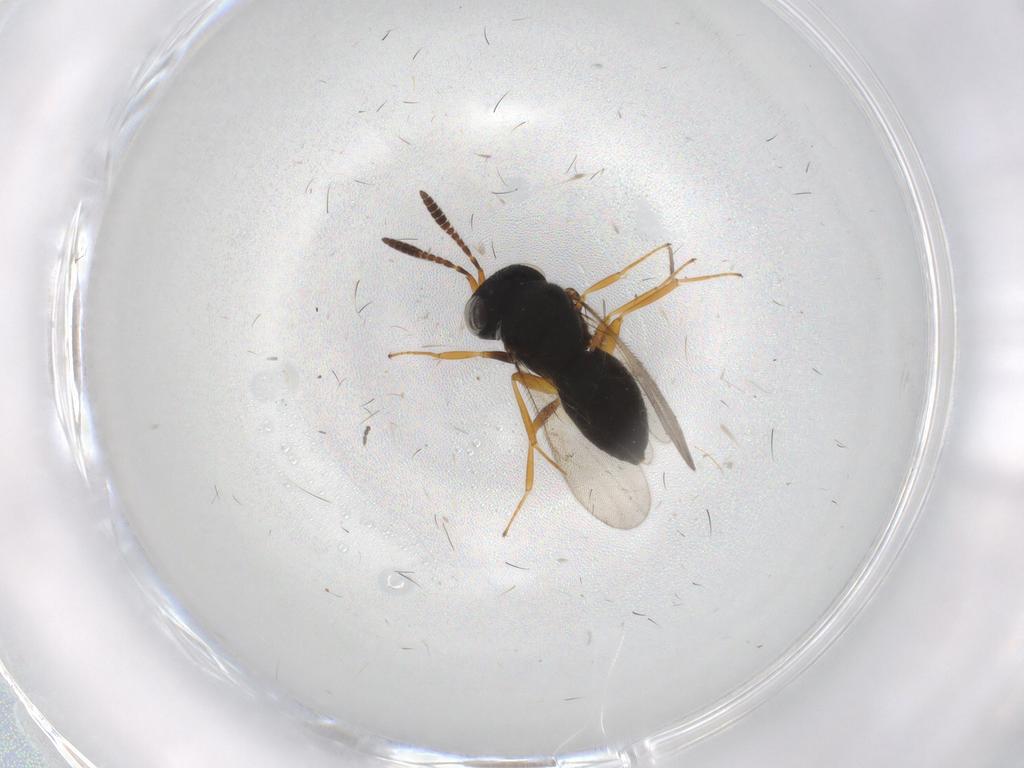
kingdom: Animalia
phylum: Arthropoda
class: Insecta
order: Hymenoptera
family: Scelionidae
